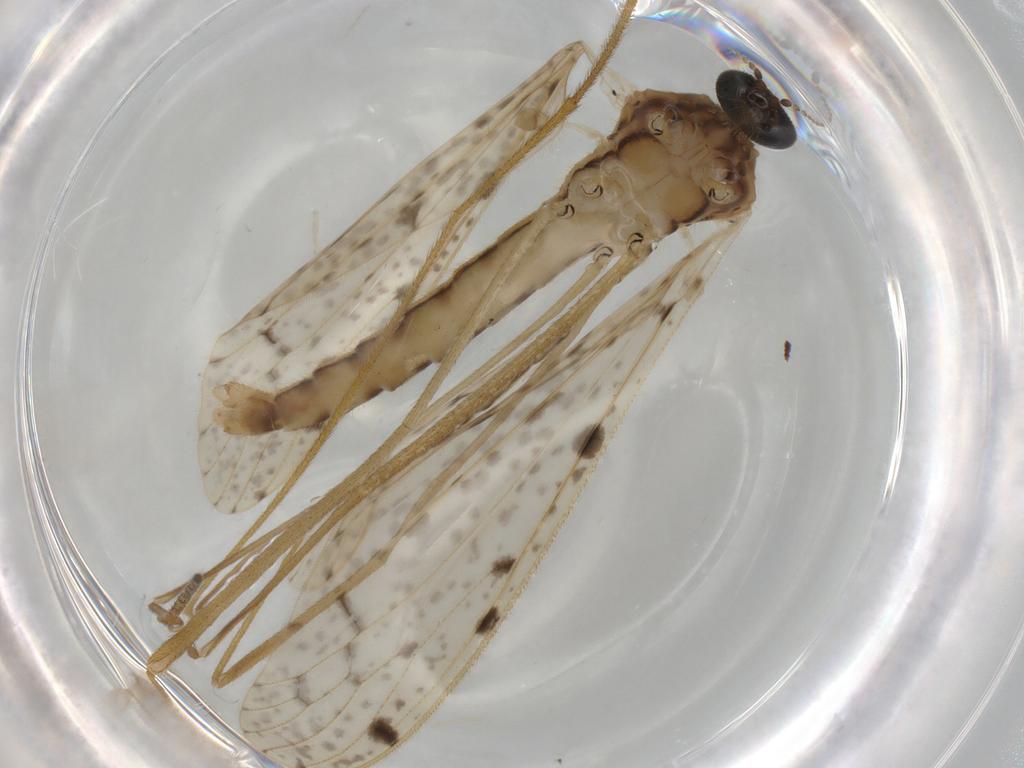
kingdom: Animalia
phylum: Arthropoda
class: Insecta
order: Diptera
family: Limoniidae
